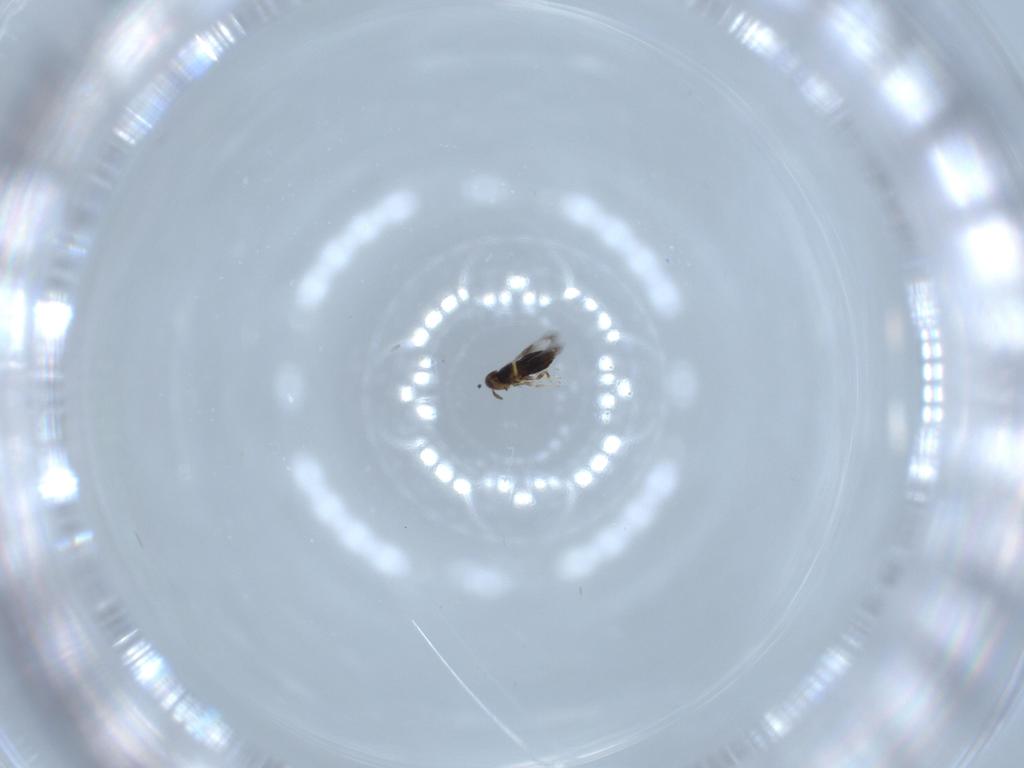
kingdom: Animalia
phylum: Arthropoda
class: Insecta
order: Hymenoptera
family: Signiphoridae
